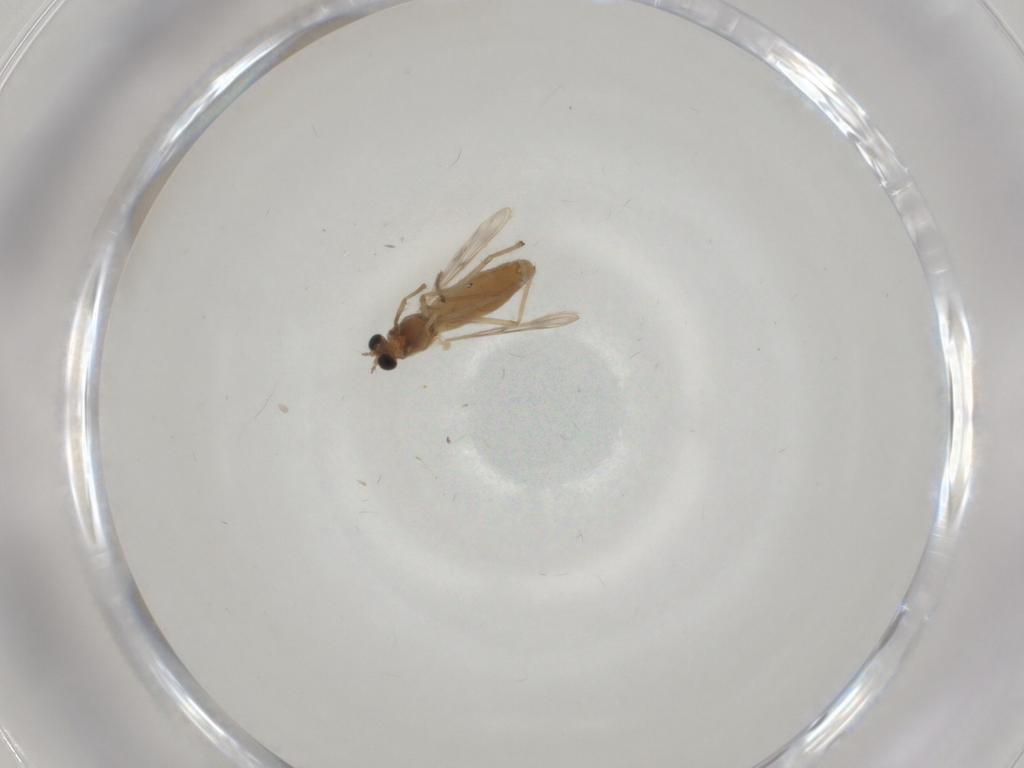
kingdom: Animalia
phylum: Arthropoda
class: Insecta
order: Diptera
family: Chironomidae
